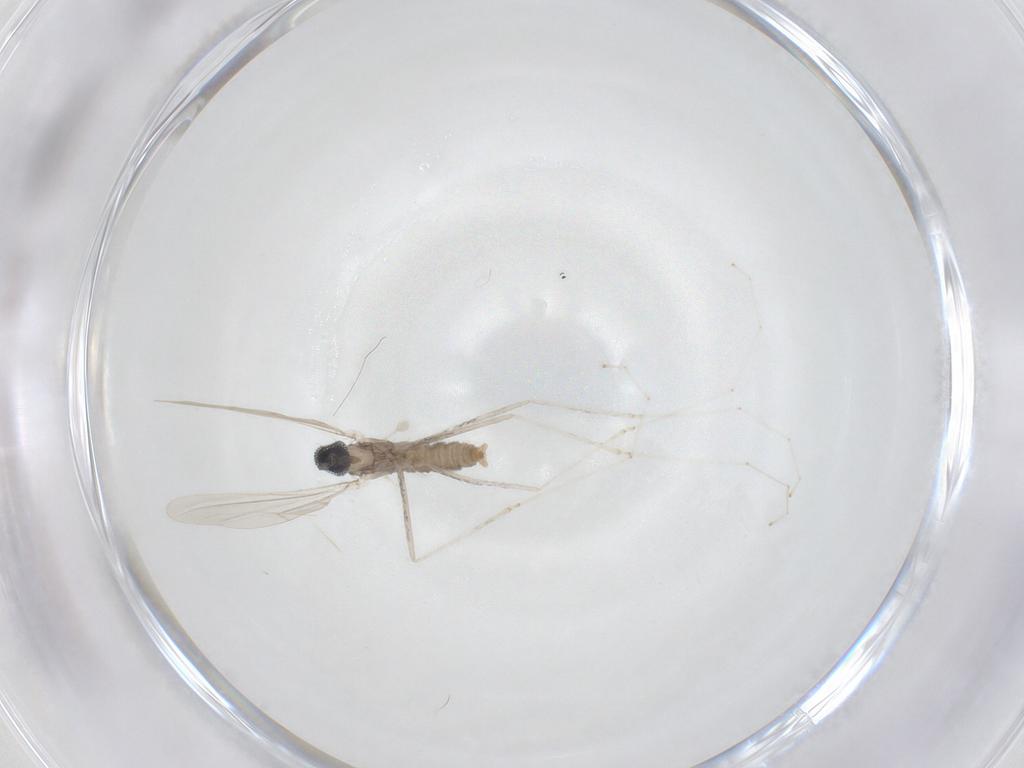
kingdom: Animalia
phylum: Arthropoda
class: Insecta
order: Diptera
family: Cecidomyiidae
